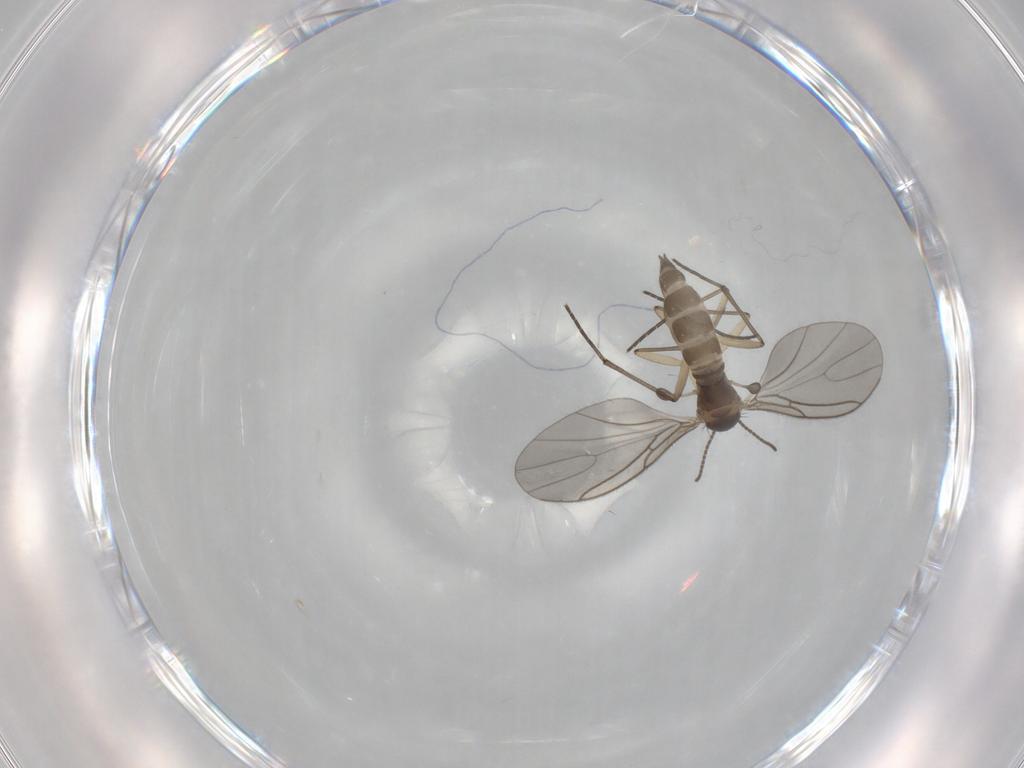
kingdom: Animalia
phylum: Arthropoda
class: Insecta
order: Diptera
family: Sciaridae
